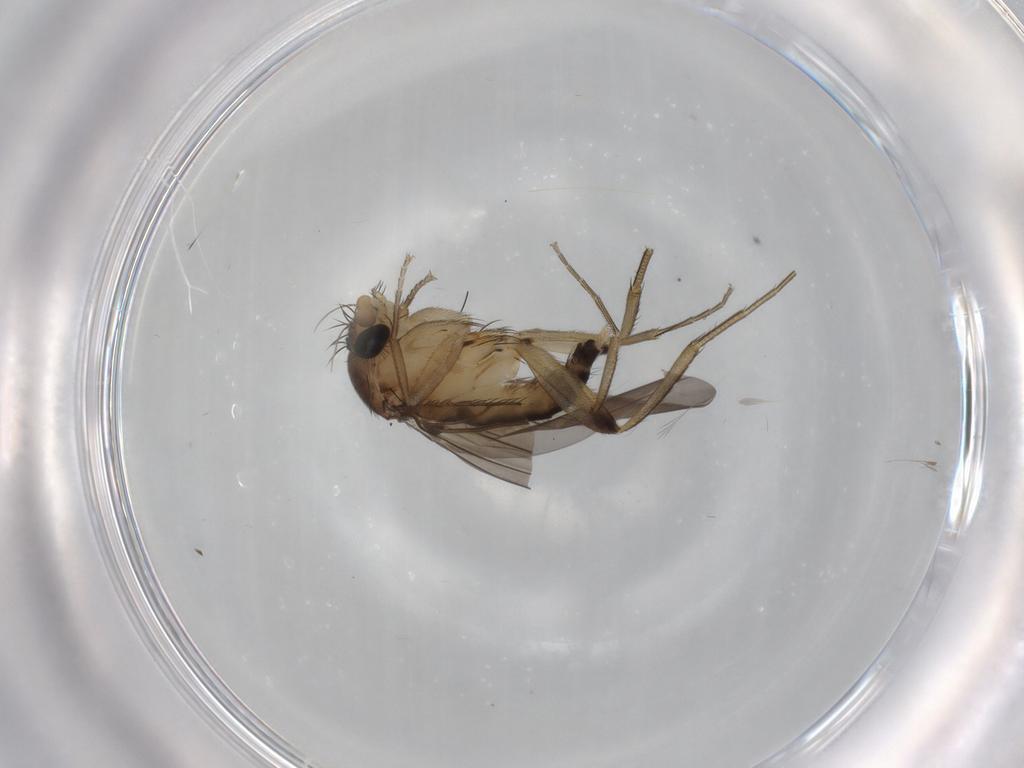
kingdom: Animalia
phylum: Arthropoda
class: Insecta
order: Diptera
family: Phoridae
